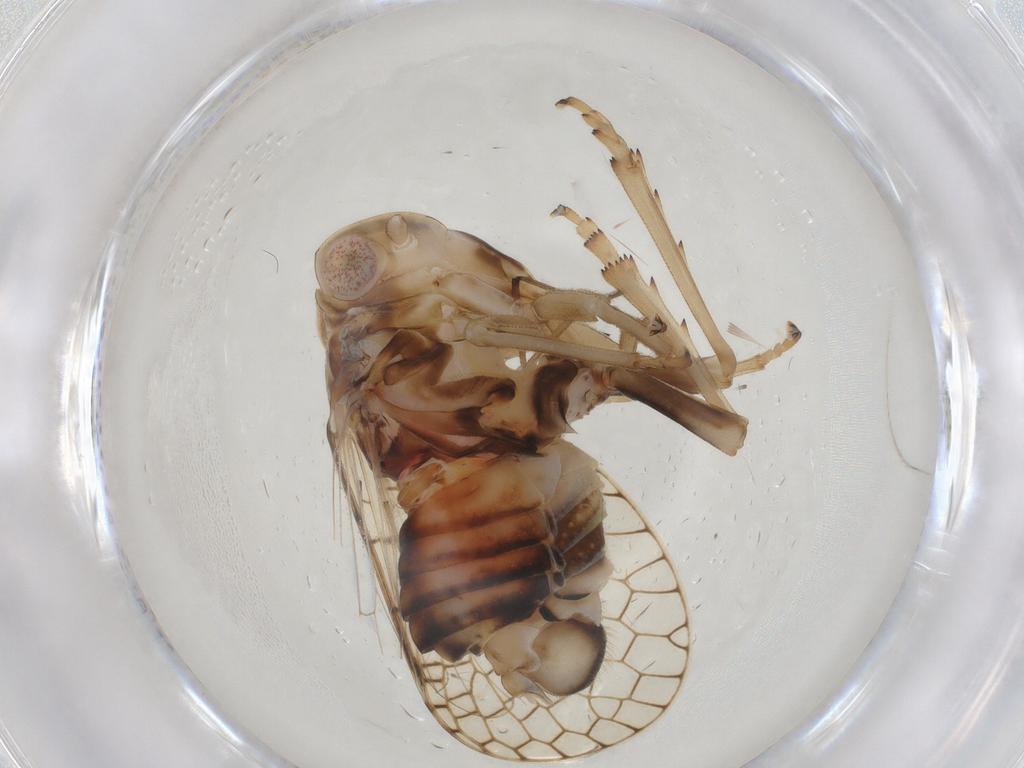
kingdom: Animalia
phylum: Arthropoda
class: Insecta
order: Hemiptera
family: Tropiduchidae
